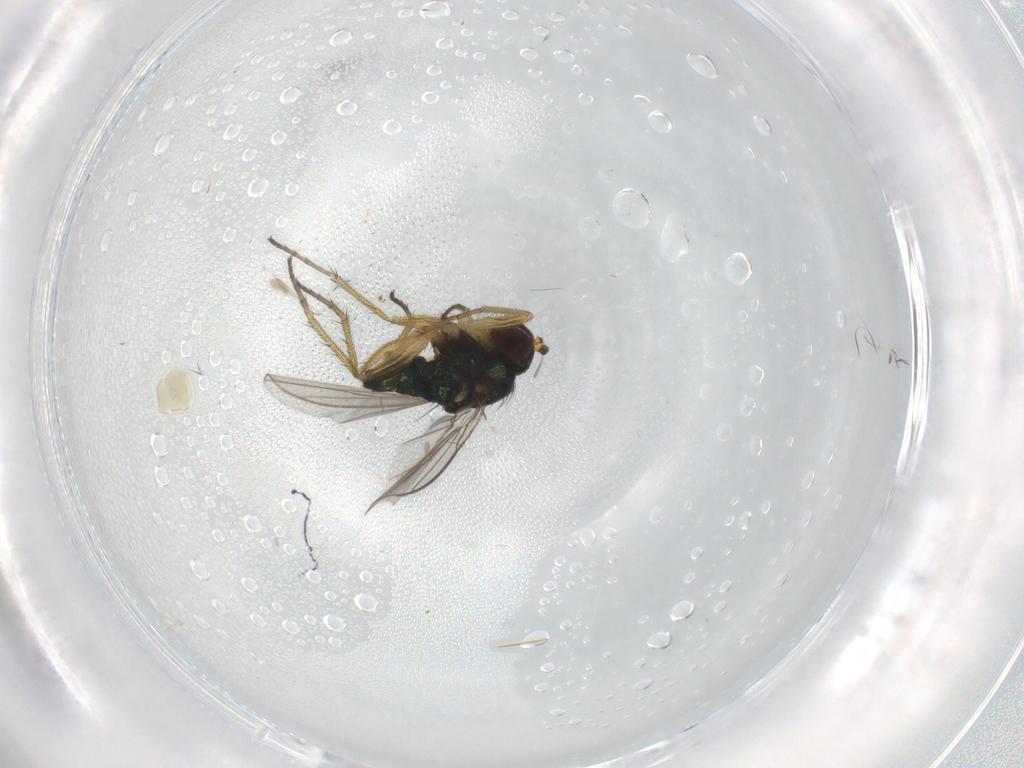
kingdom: Animalia
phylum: Arthropoda
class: Insecta
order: Diptera
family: Dolichopodidae
